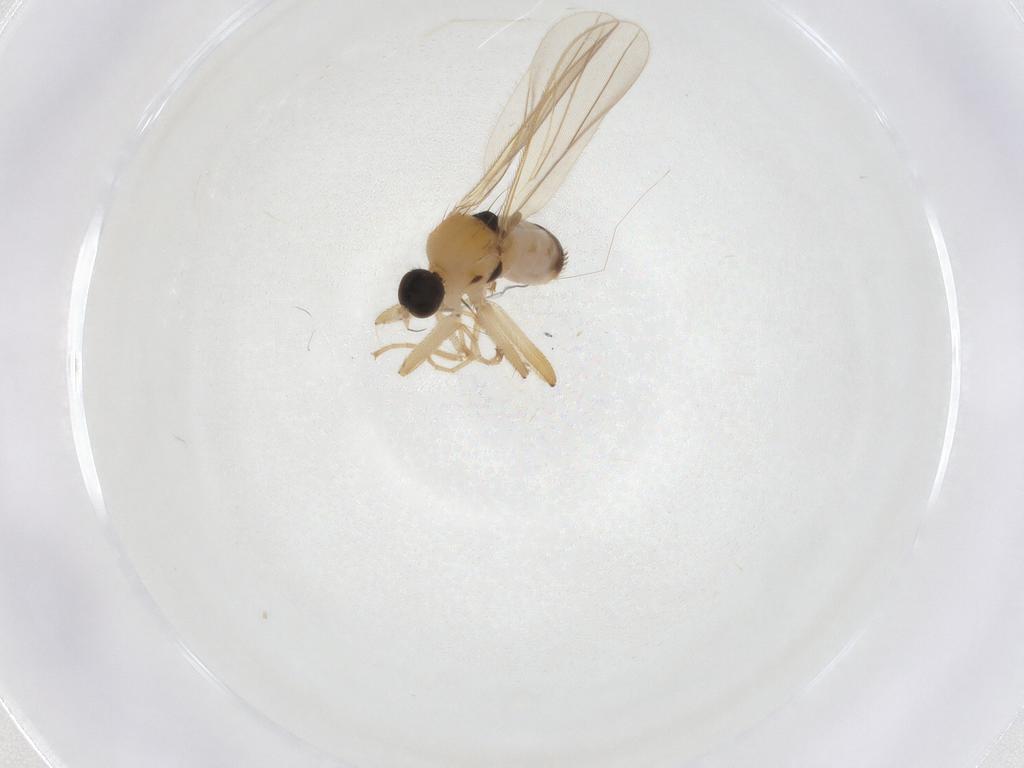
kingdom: Animalia
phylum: Arthropoda
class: Insecta
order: Diptera
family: Hybotidae
